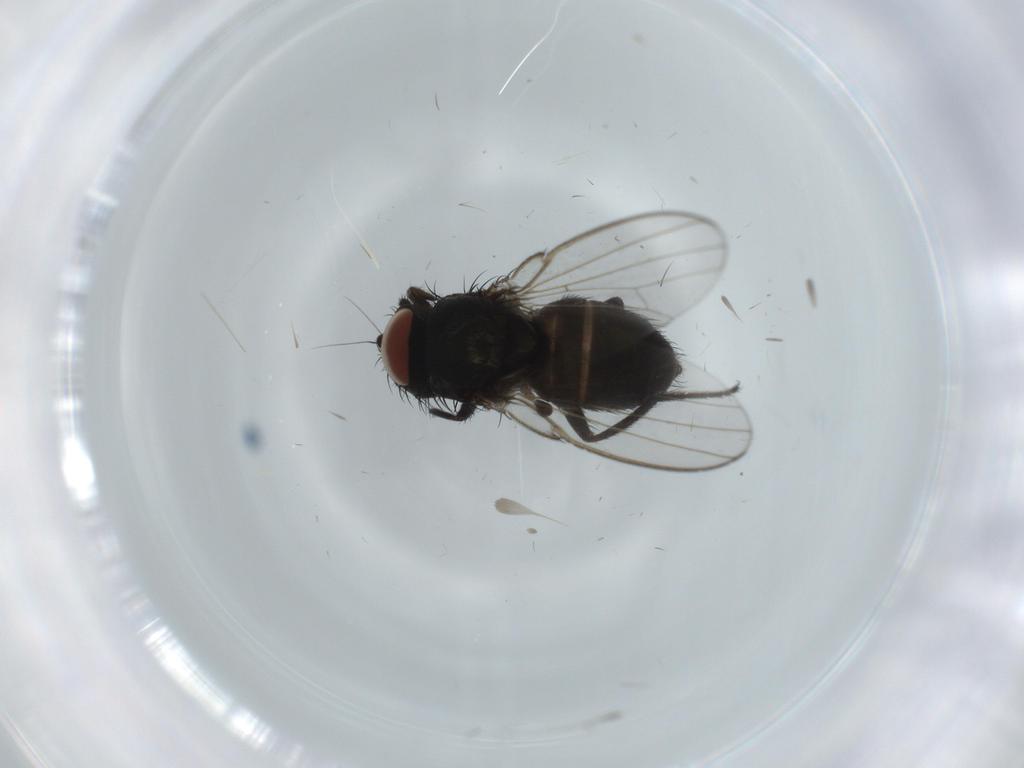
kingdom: Animalia
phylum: Arthropoda
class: Insecta
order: Diptera
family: Milichiidae
